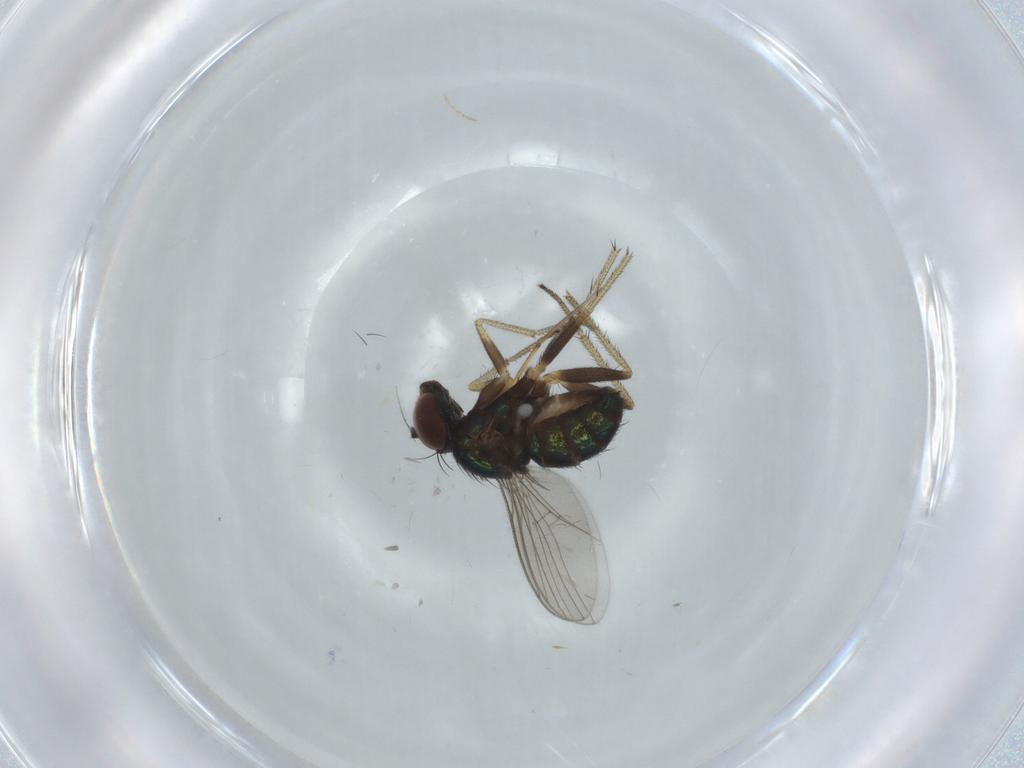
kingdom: Animalia
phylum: Arthropoda
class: Insecta
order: Diptera
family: Dolichopodidae
